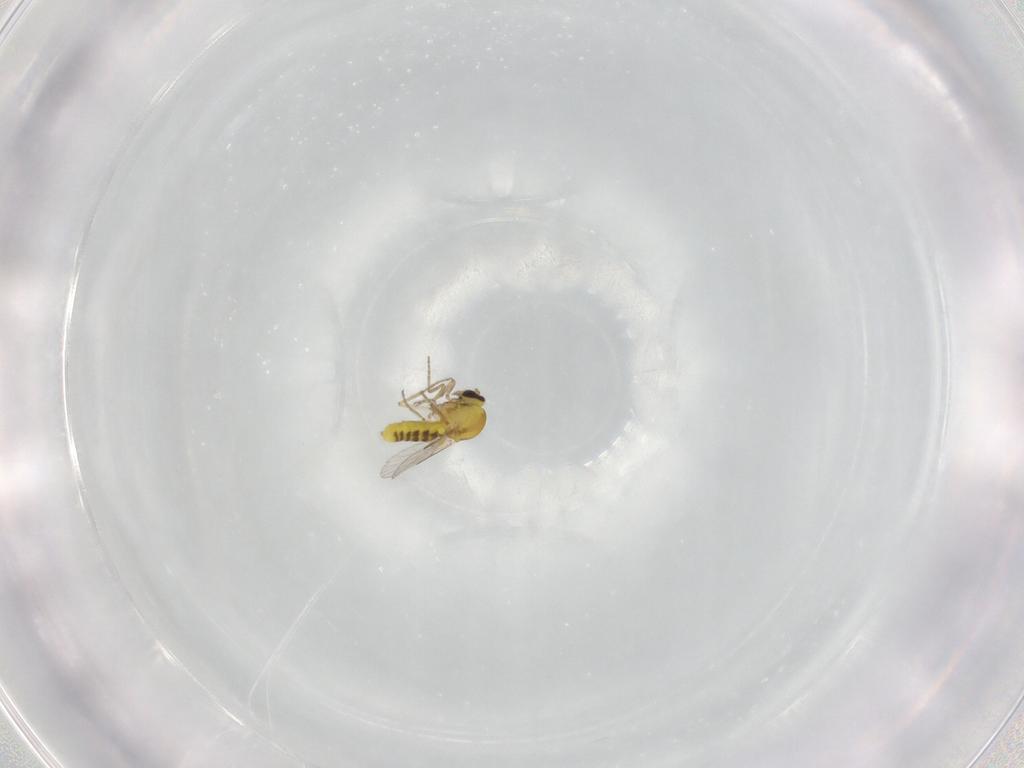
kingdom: Animalia
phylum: Arthropoda
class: Insecta
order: Diptera
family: Ceratopogonidae
